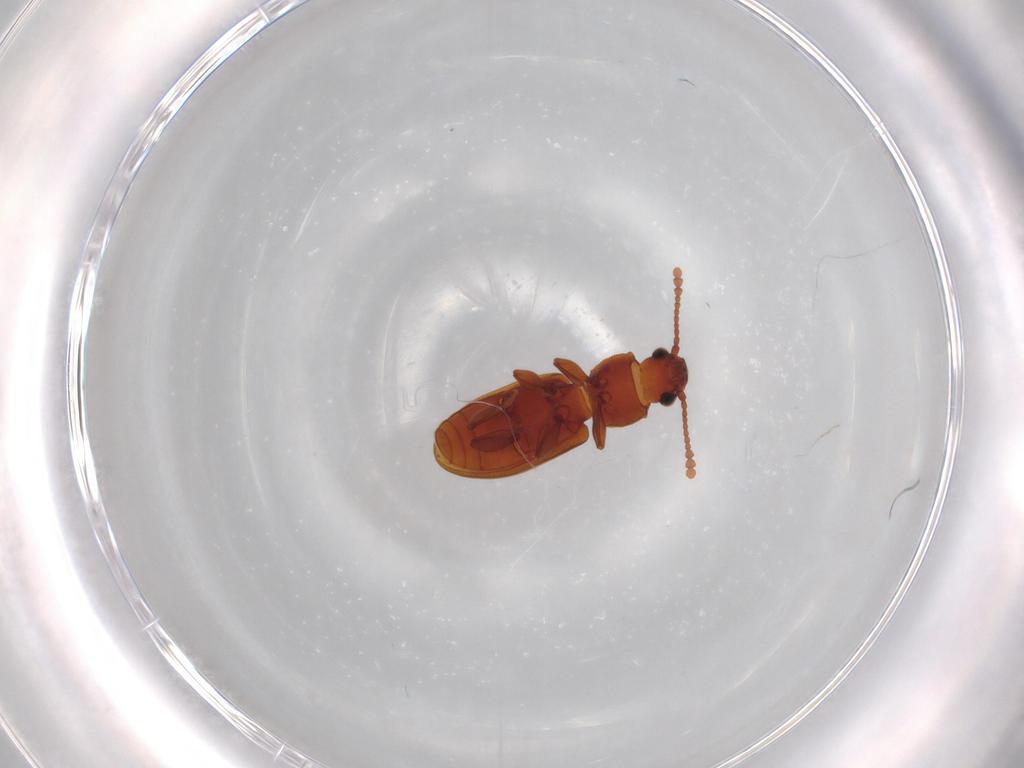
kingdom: Animalia
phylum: Arthropoda
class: Insecta
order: Coleoptera
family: Silvanidae
